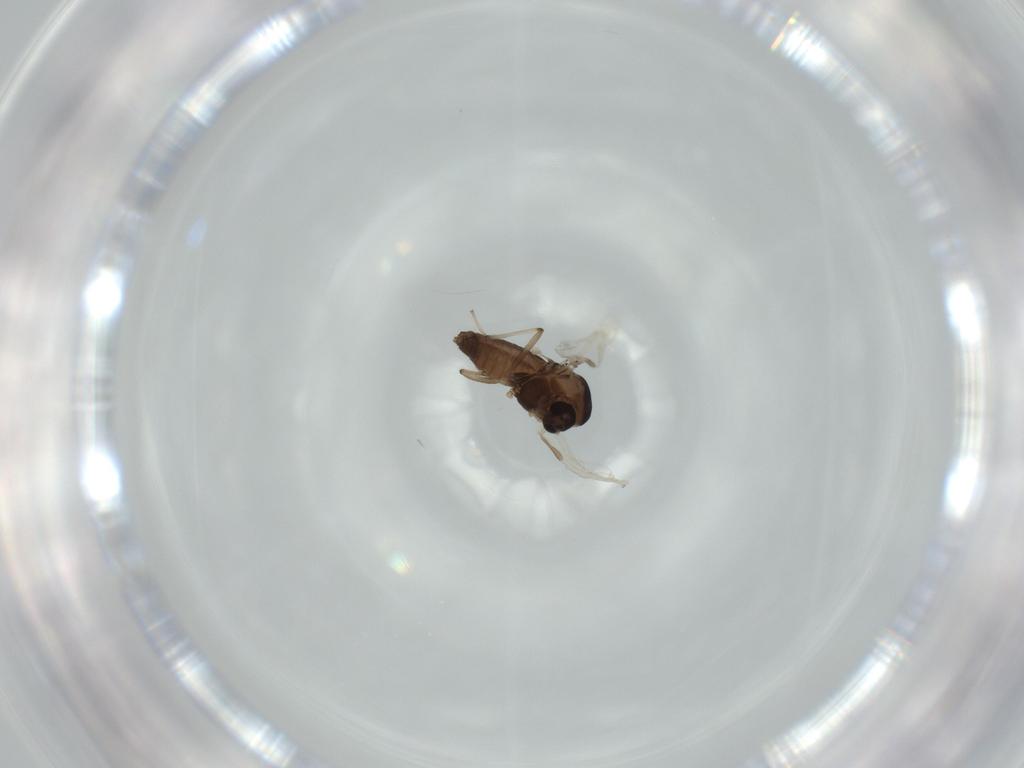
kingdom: Animalia
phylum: Arthropoda
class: Insecta
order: Diptera
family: Chironomidae
